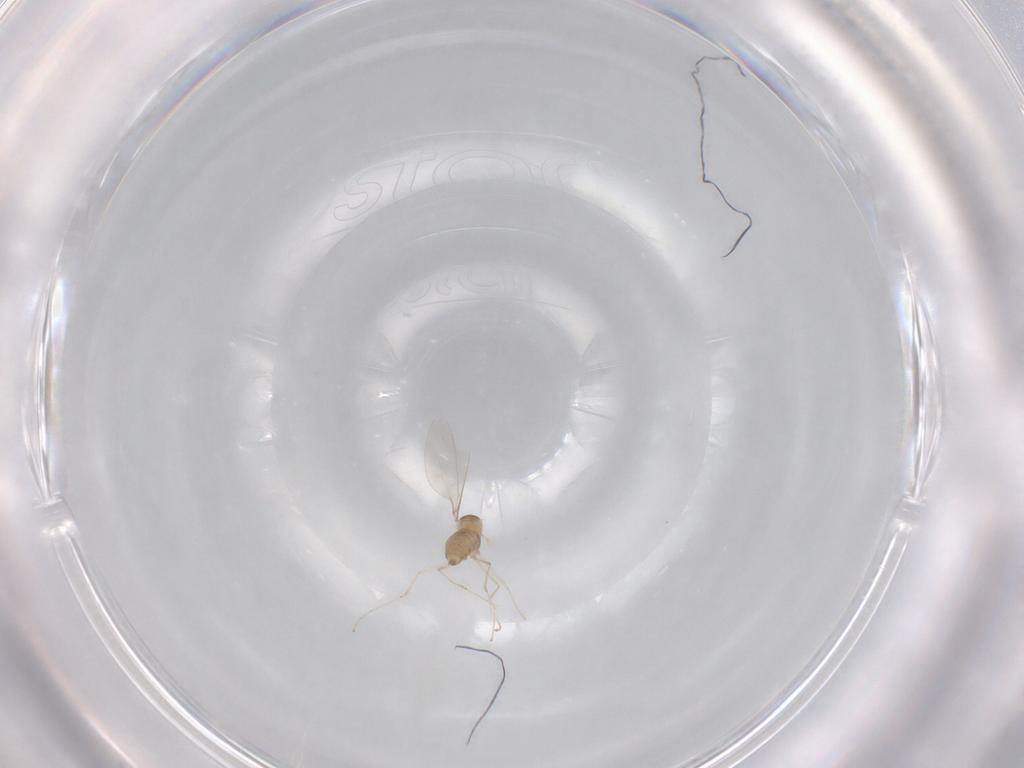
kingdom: Animalia
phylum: Arthropoda
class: Insecta
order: Diptera
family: Cecidomyiidae
